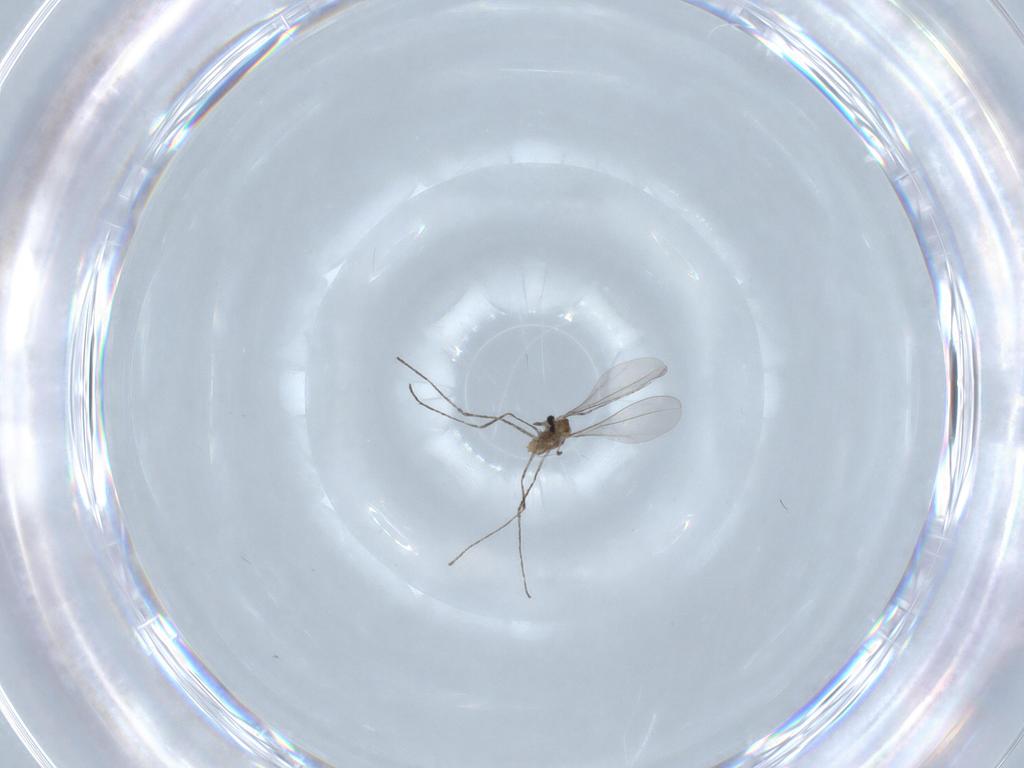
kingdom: Animalia
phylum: Arthropoda
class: Insecta
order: Diptera
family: Cecidomyiidae
